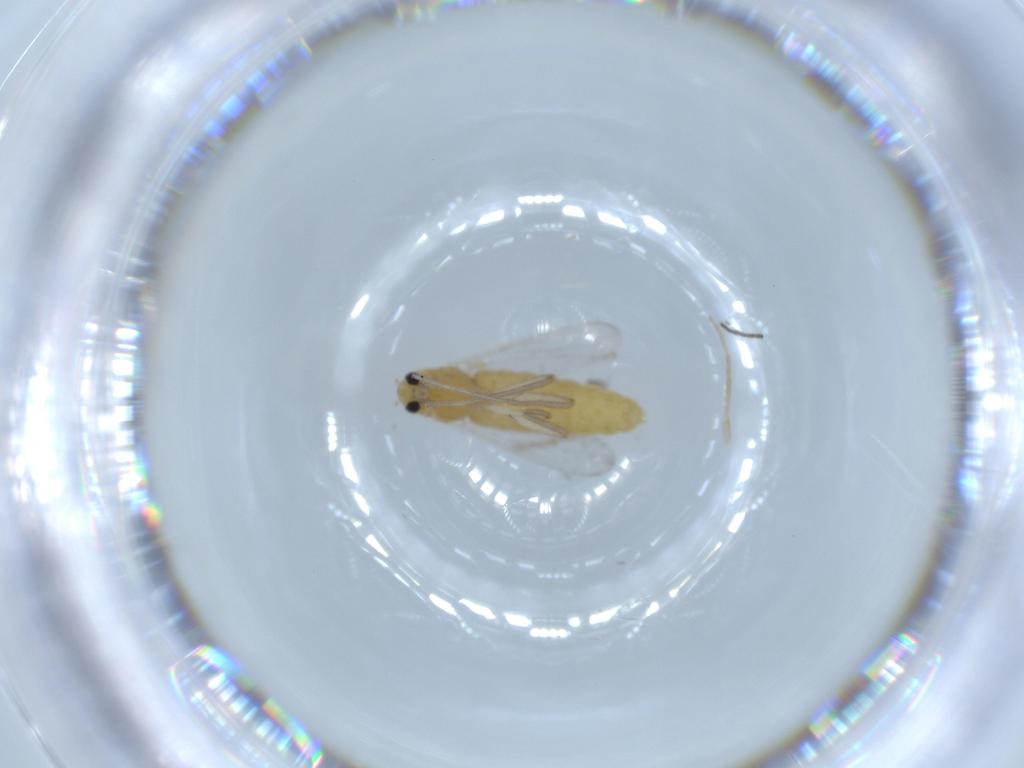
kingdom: Animalia
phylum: Arthropoda
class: Insecta
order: Diptera
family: Chironomidae
